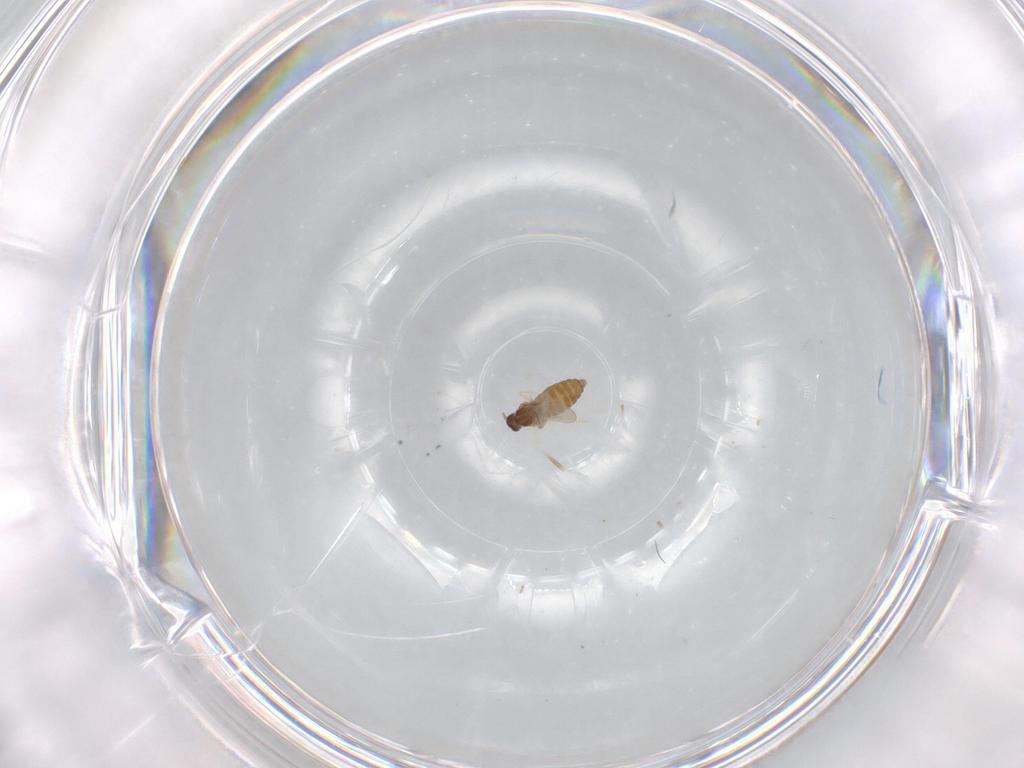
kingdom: Animalia
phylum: Arthropoda
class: Insecta
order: Diptera
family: Cecidomyiidae
